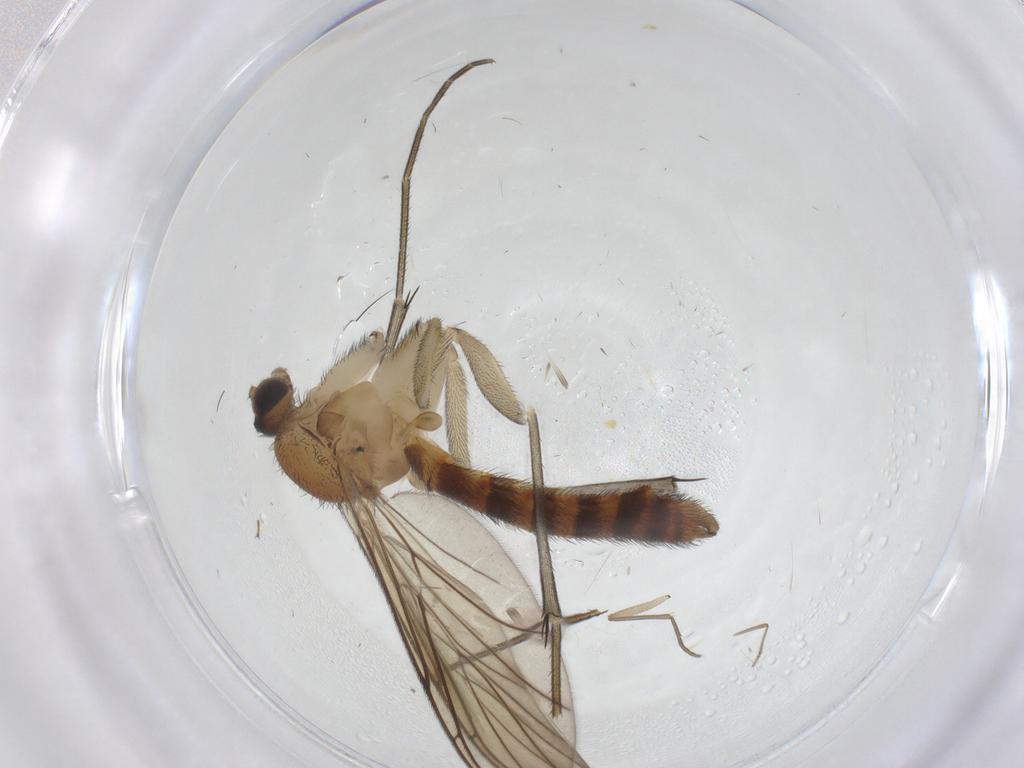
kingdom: Animalia
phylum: Arthropoda
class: Insecta
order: Diptera
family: Keroplatidae
